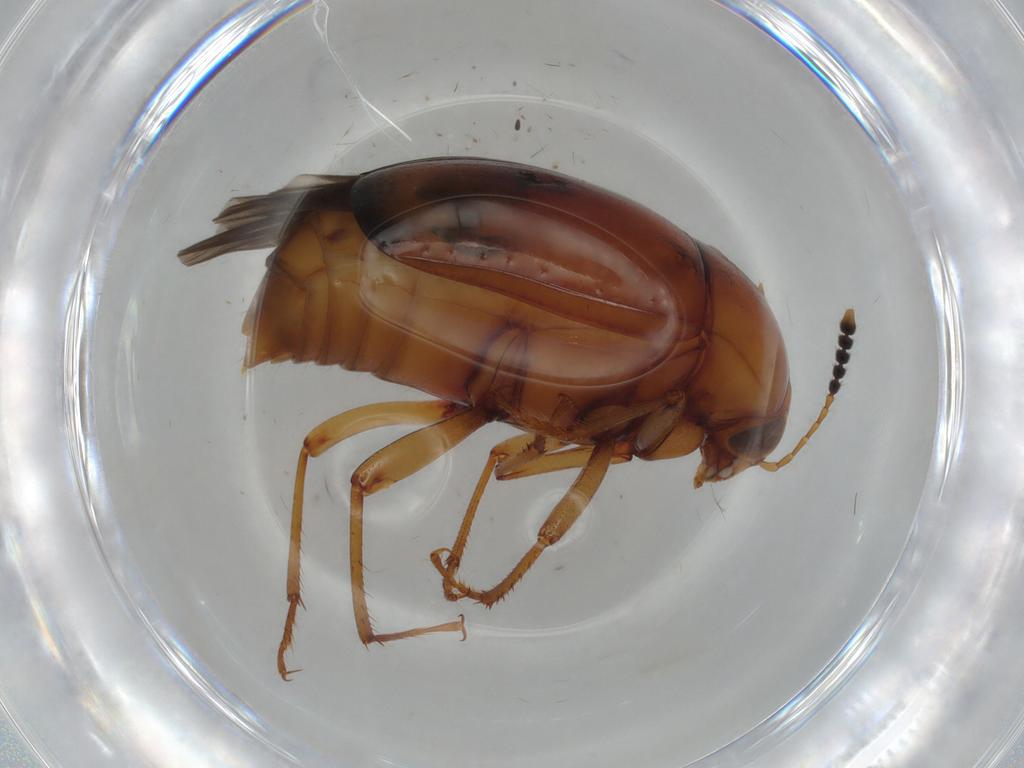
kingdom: Animalia
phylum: Arthropoda
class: Insecta
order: Coleoptera
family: Staphylinidae
